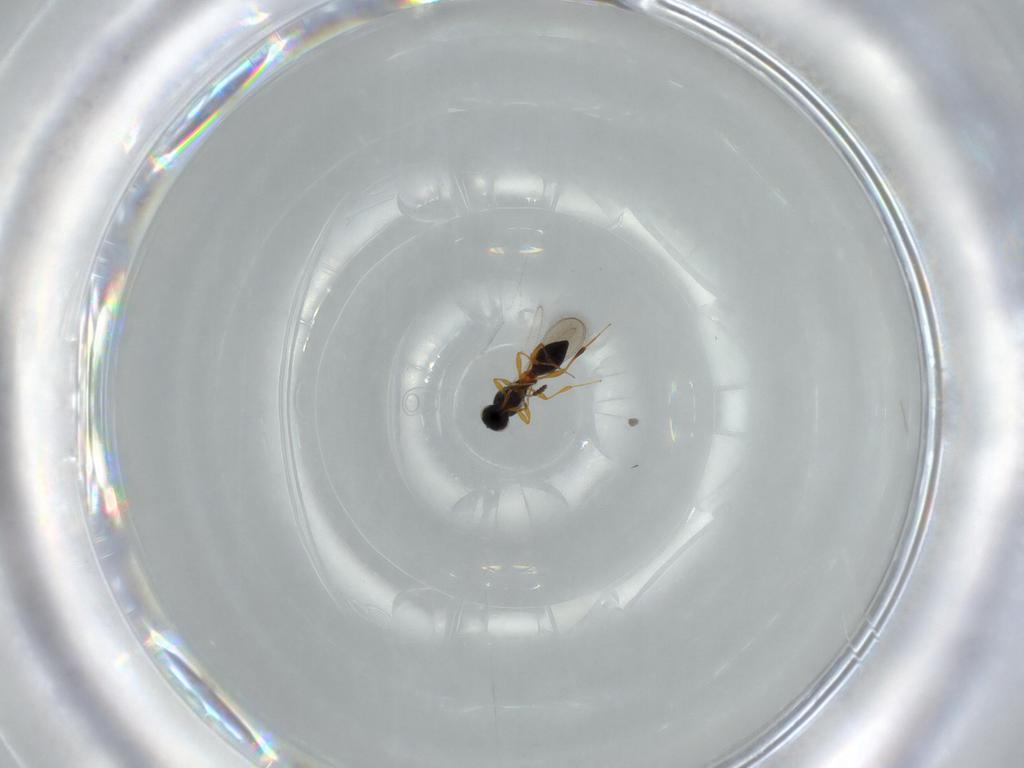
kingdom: Animalia
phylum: Arthropoda
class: Insecta
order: Hymenoptera
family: Platygastridae
